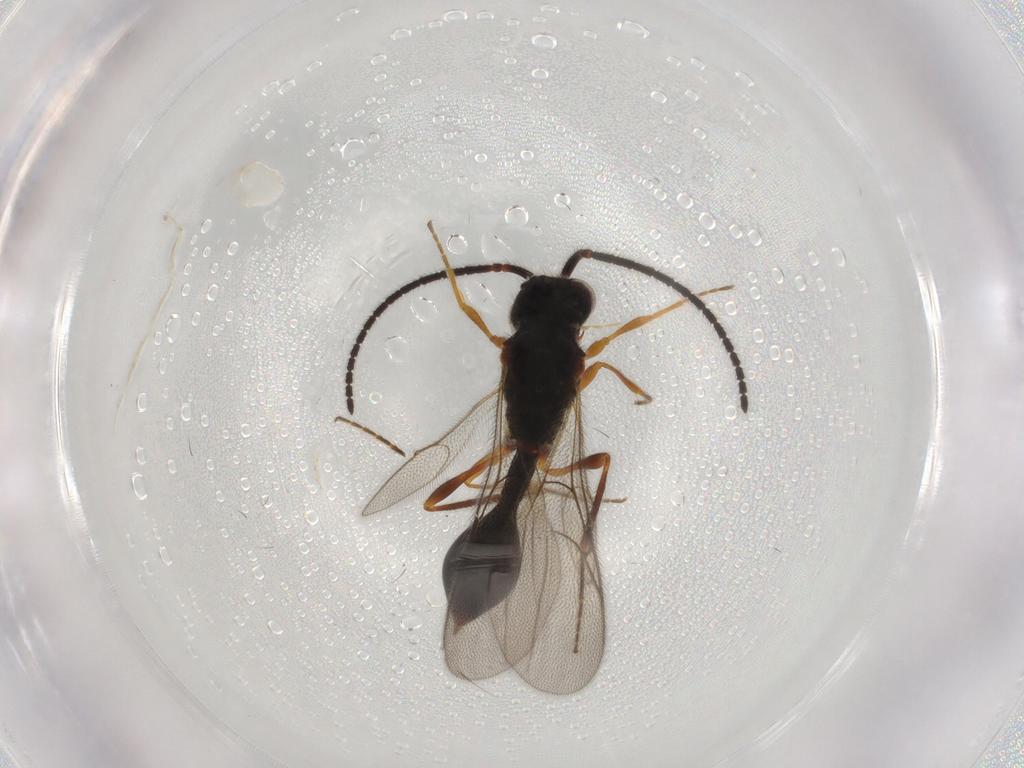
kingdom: Animalia
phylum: Arthropoda
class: Insecta
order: Hymenoptera
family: Diapriidae
